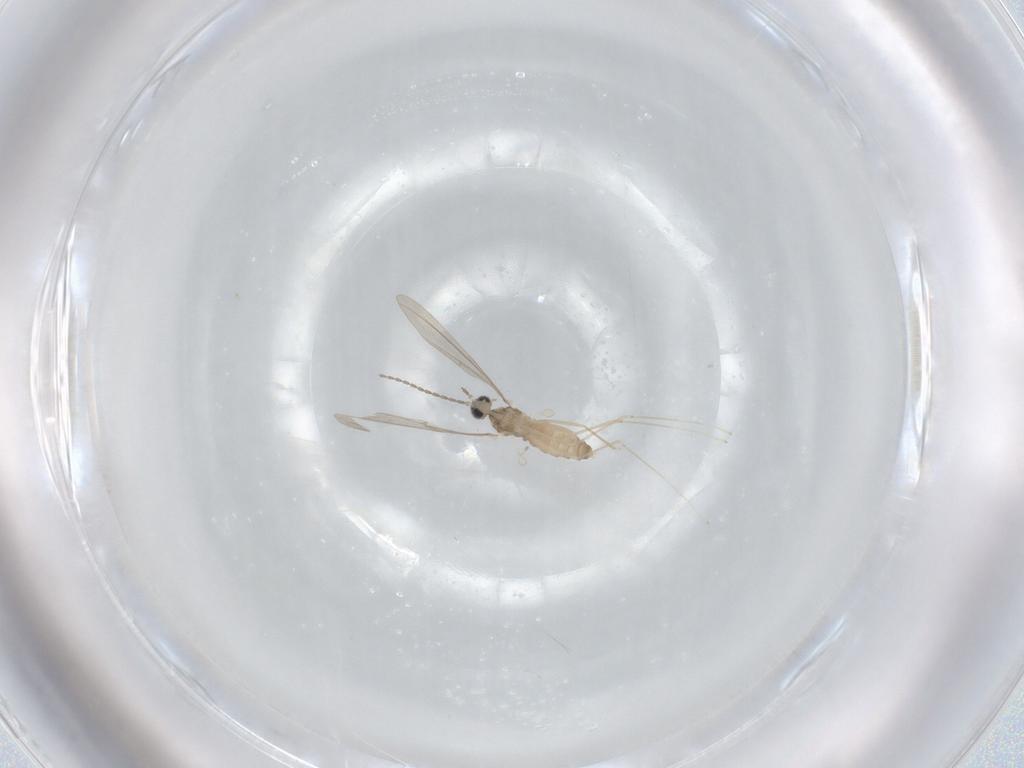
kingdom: Animalia
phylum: Arthropoda
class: Insecta
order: Diptera
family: Cecidomyiidae
